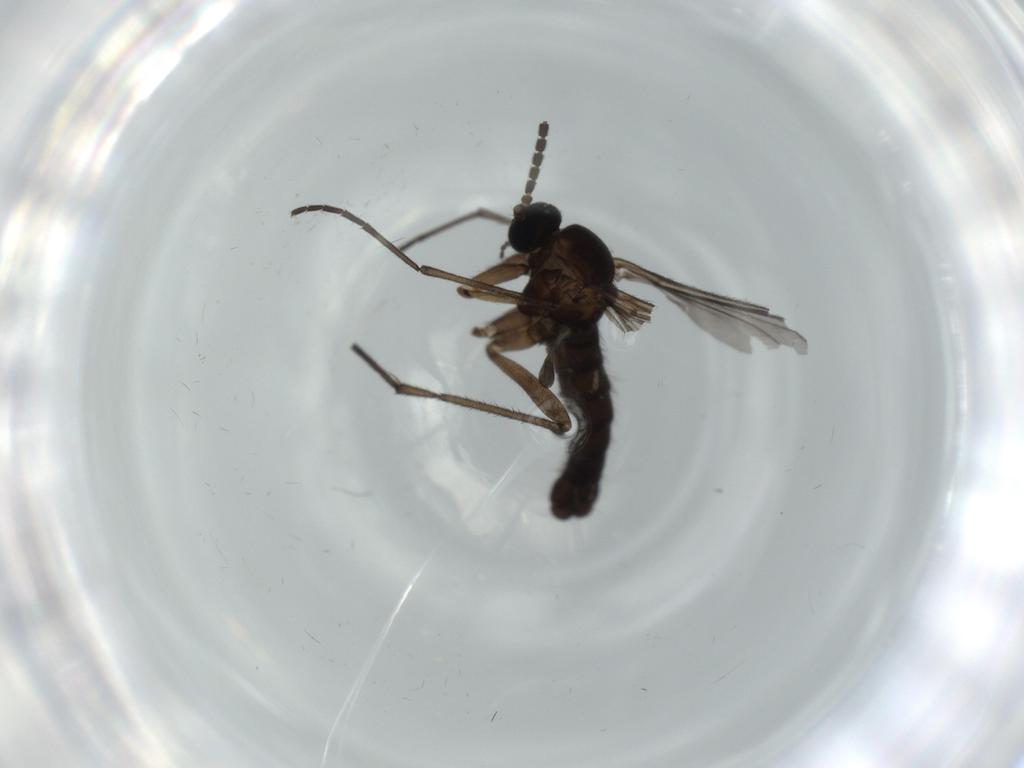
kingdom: Animalia
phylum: Arthropoda
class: Insecta
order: Diptera
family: Sciaridae
